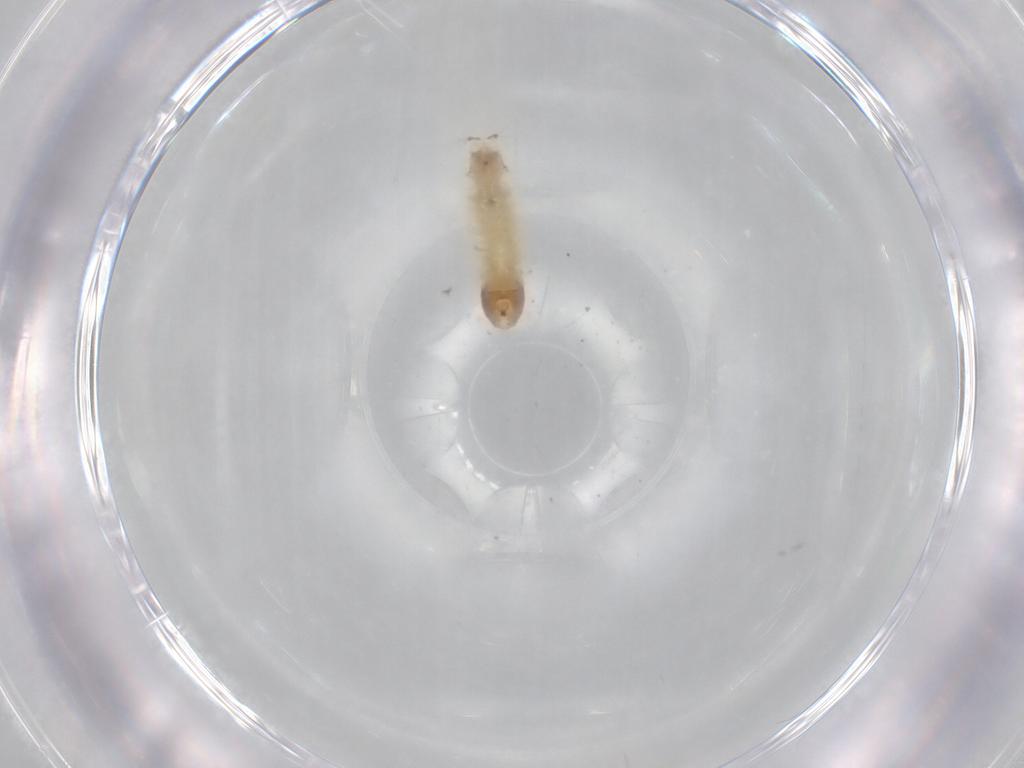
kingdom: Animalia
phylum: Arthropoda
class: Insecta
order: Diptera
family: Chironomidae
